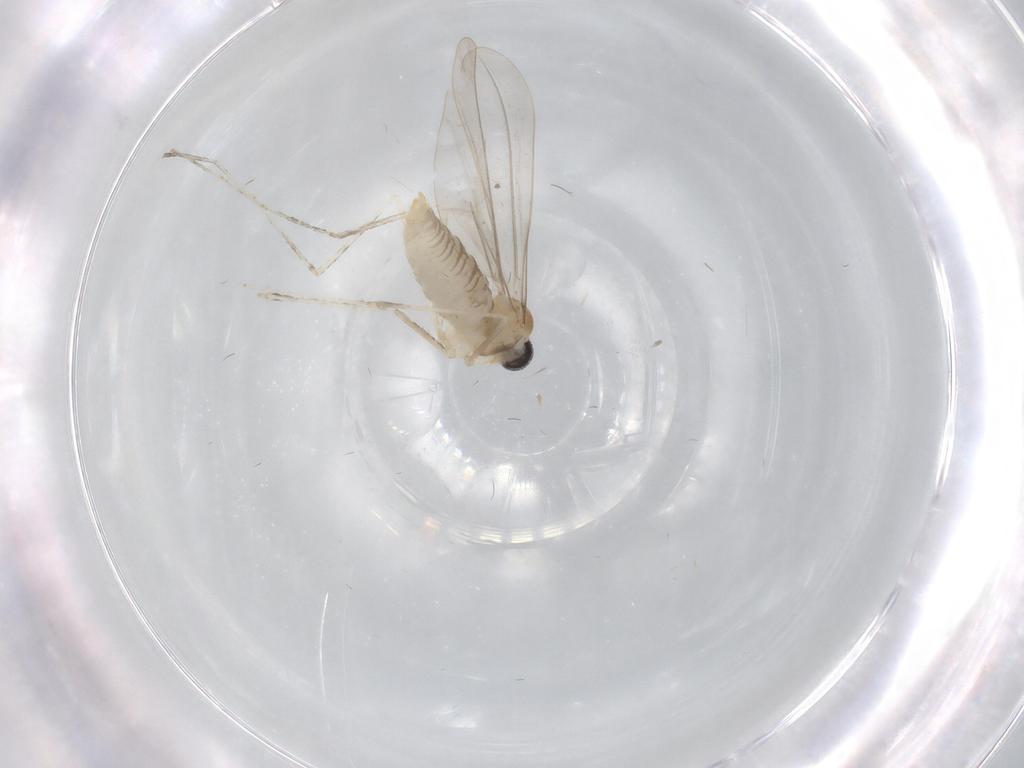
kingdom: Animalia
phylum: Arthropoda
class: Insecta
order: Diptera
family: Cecidomyiidae
